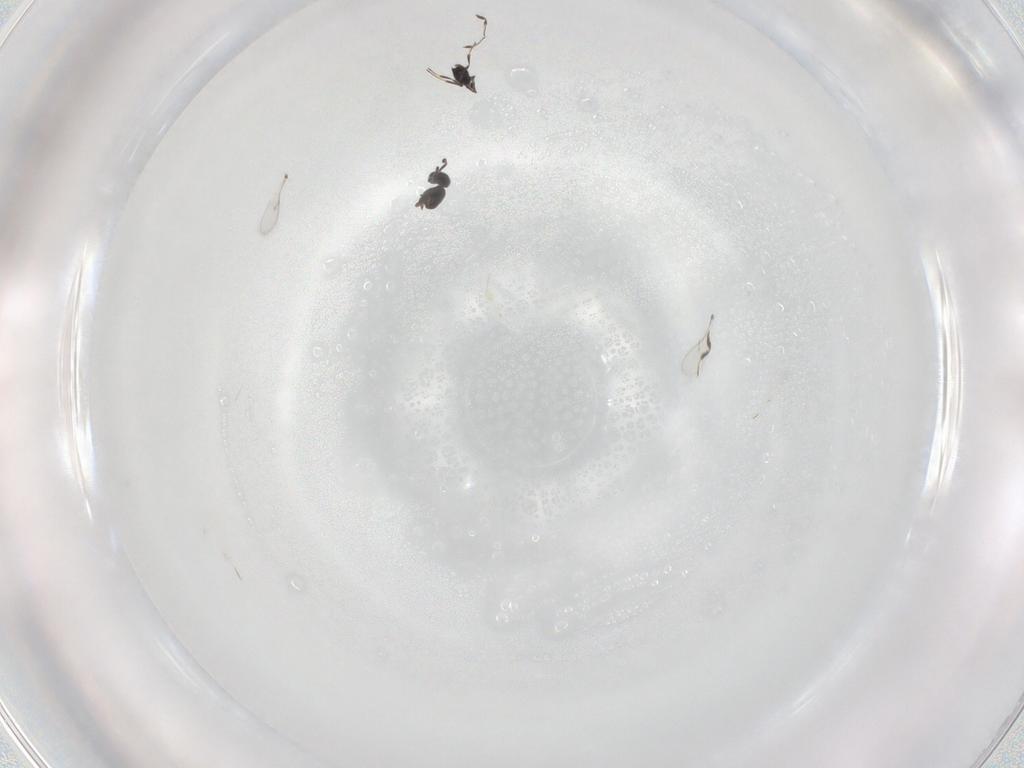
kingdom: Animalia
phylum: Arthropoda
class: Insecta
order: Hymenoptera
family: Scelionidae
